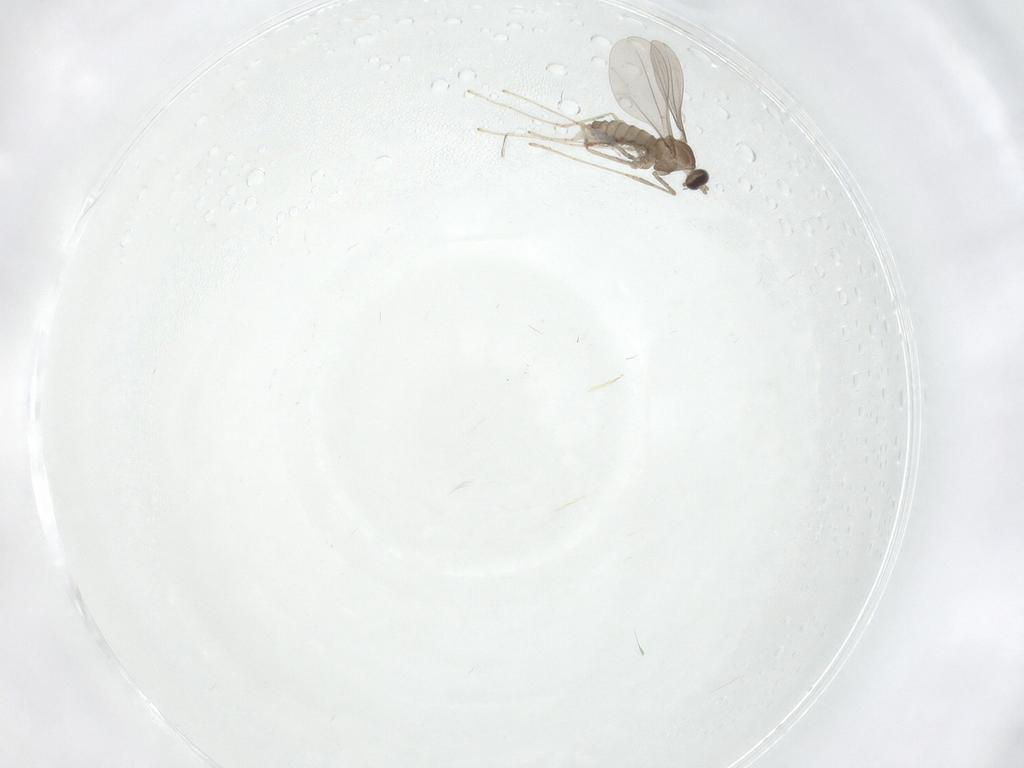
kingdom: Animalia
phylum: Arthropoda
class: Insecta
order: Diptera
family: Cecidomyiidae
